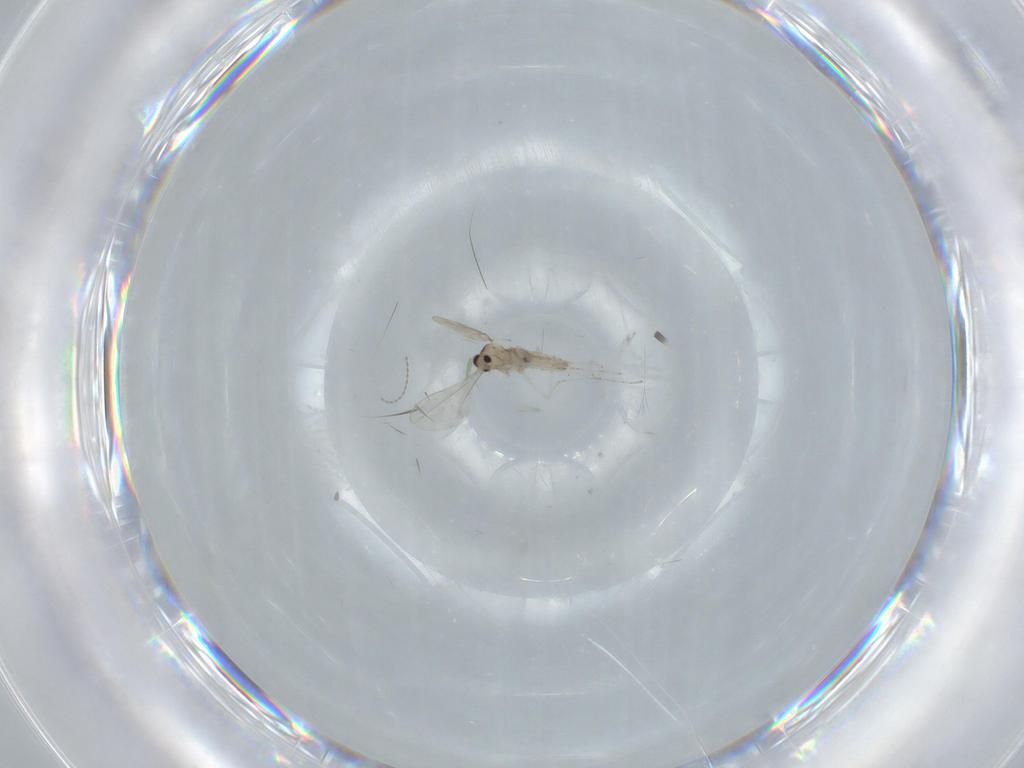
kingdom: Animalia
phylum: Arthropoda
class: Insecta
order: Diptera
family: Cecidomyiidae
